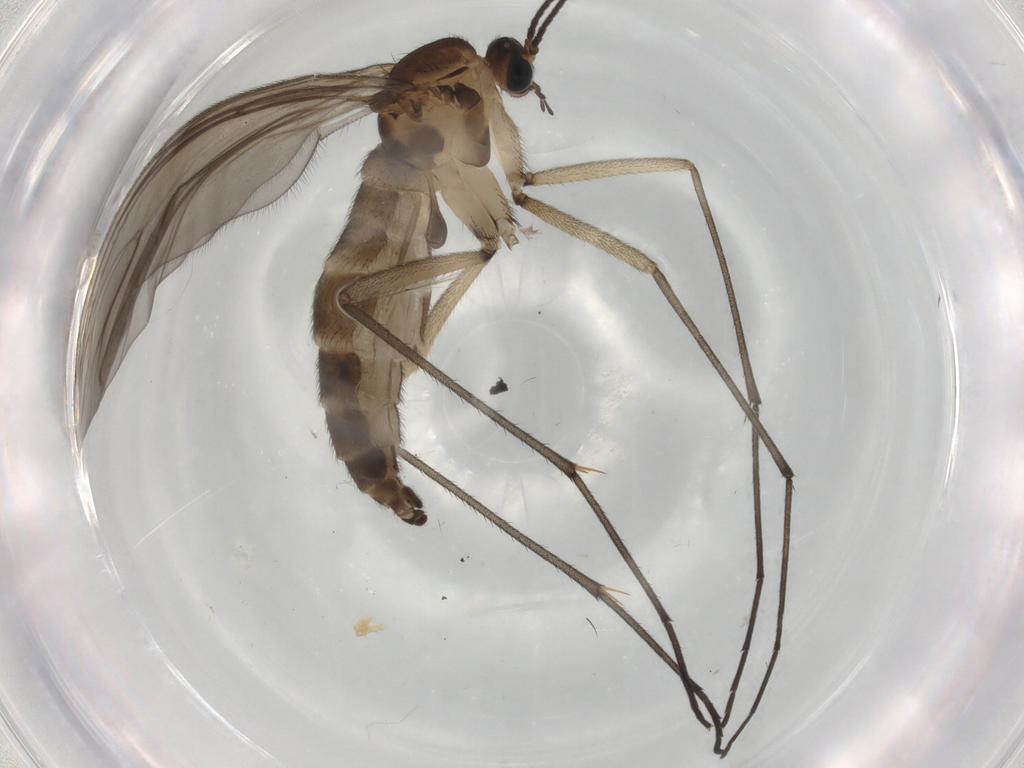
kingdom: Animalia
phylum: Arthropoda
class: Insecta
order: Diptera
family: Sciaridae
